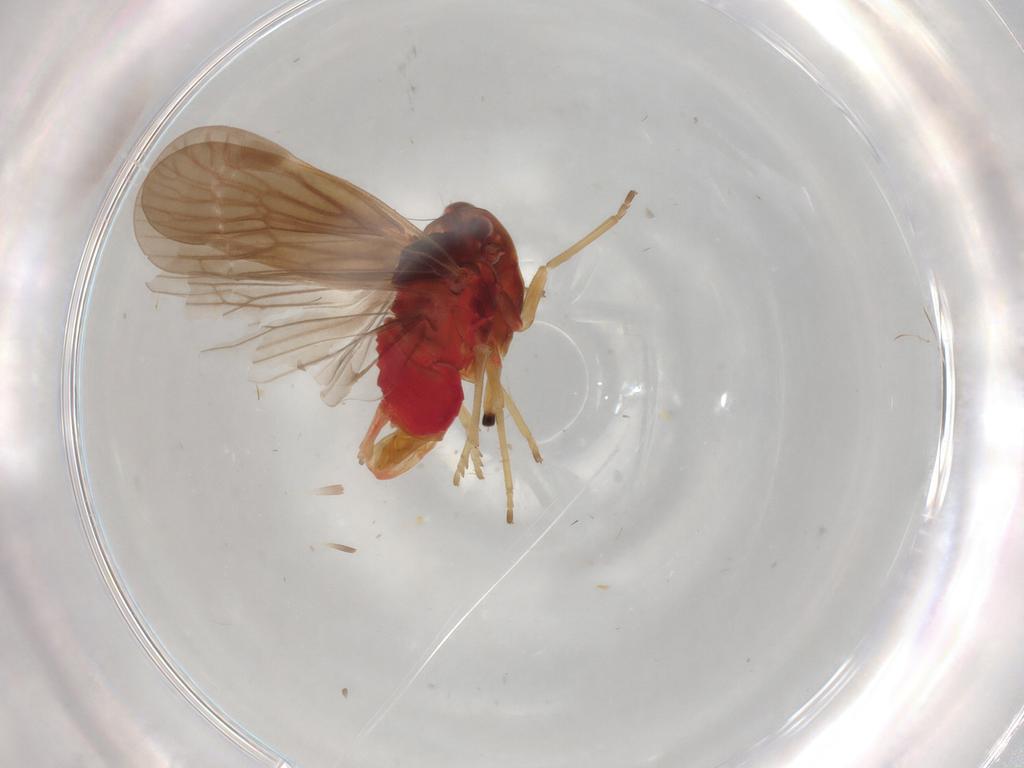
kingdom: Animalia
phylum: Arthropoda
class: Insecta
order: Hemiptera
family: Derbidae
